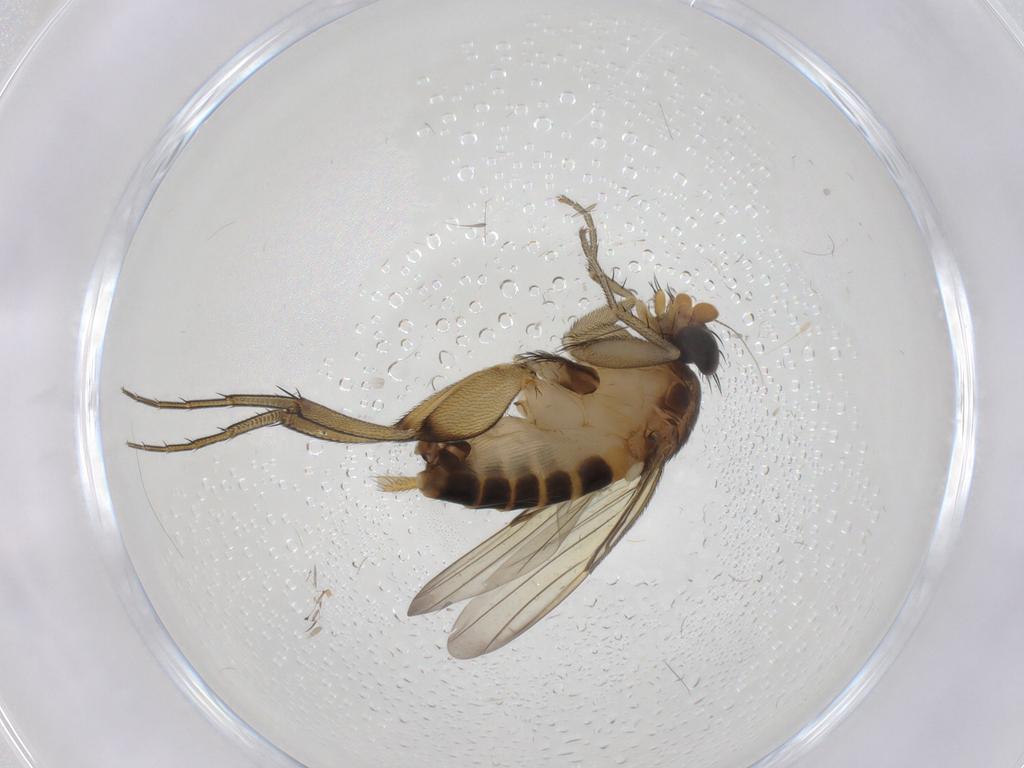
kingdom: Animalia
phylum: Arthropoda
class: Insecta
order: Diptera
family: Phoridae
